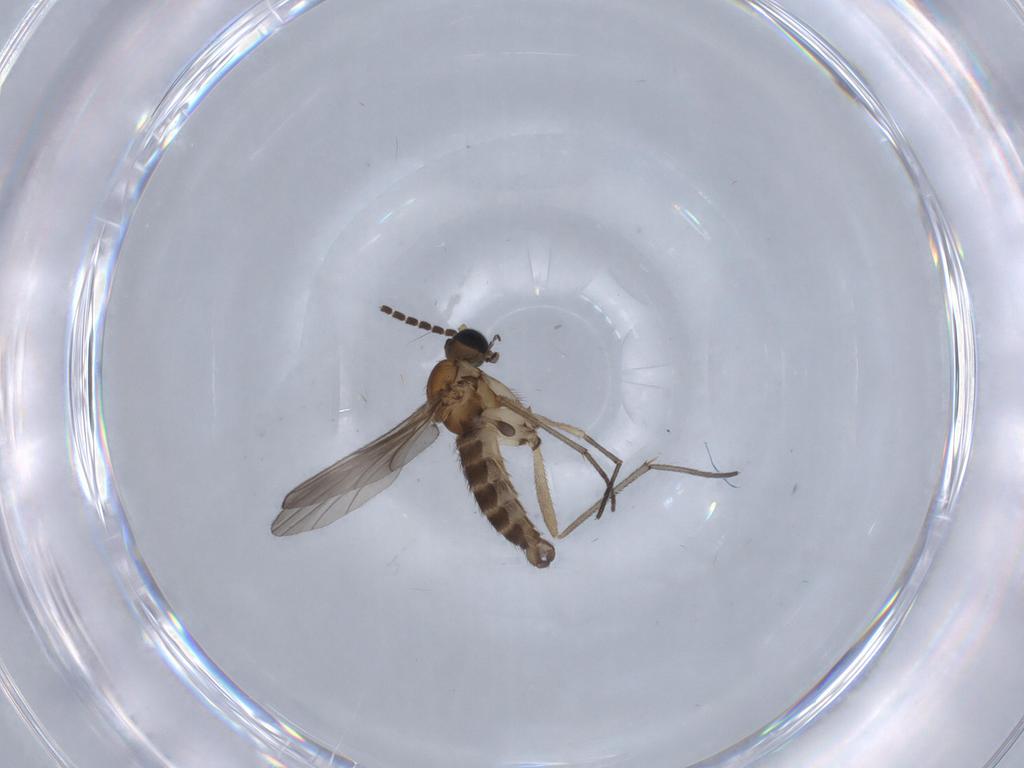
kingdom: Animalia
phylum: Arthropoda
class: Insecta
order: Diptera
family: Sciaridae
